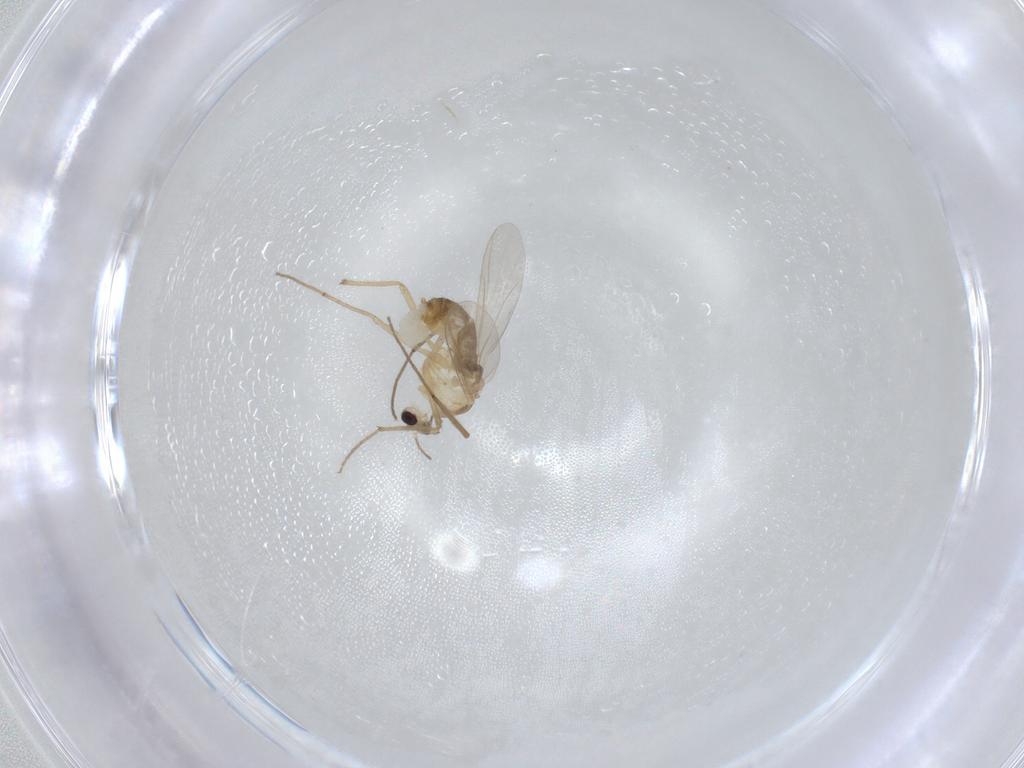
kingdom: Animalia
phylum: Arthropoda
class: Insecta
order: Diptera
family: Chironomidae
